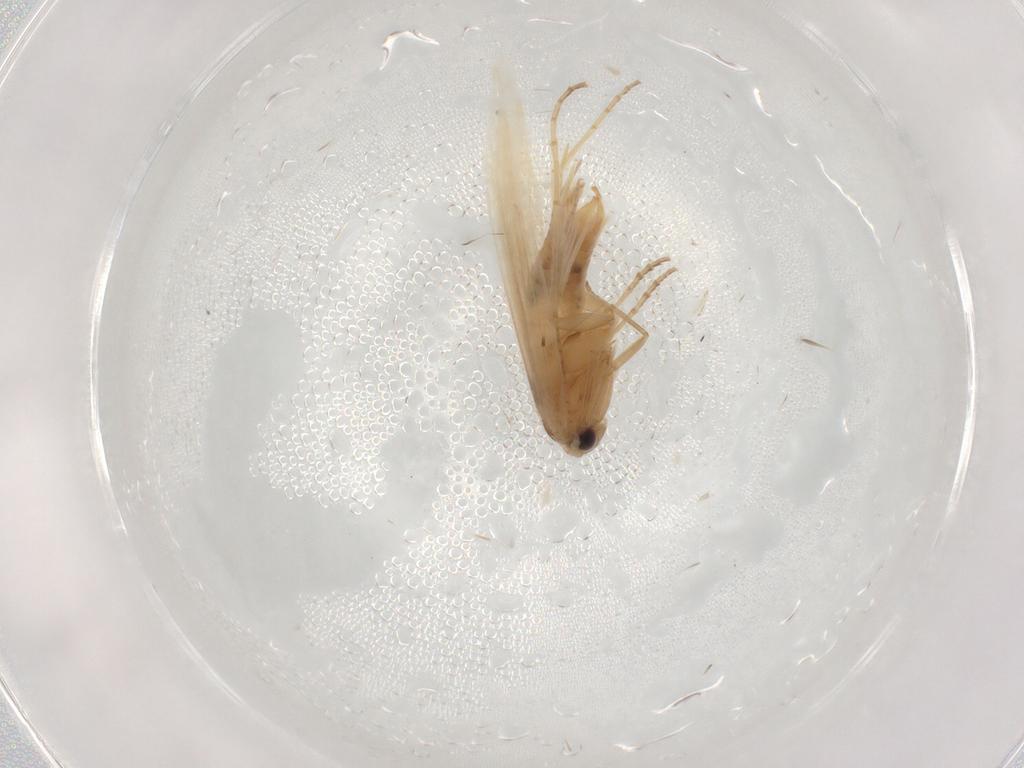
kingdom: Animalia
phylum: Arthropoda
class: Insecta
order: Lepidoptera
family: Bucculatricidae
